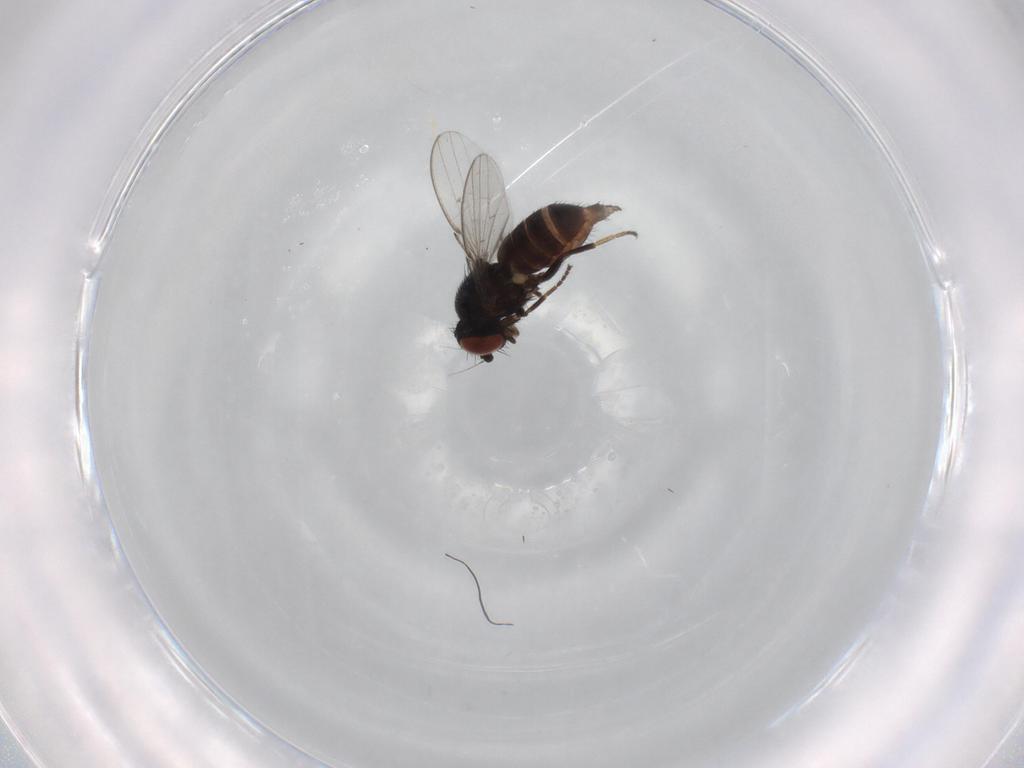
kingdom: Animalia
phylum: Arthropoda
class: Insecta
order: Diptera
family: Milichiidae
